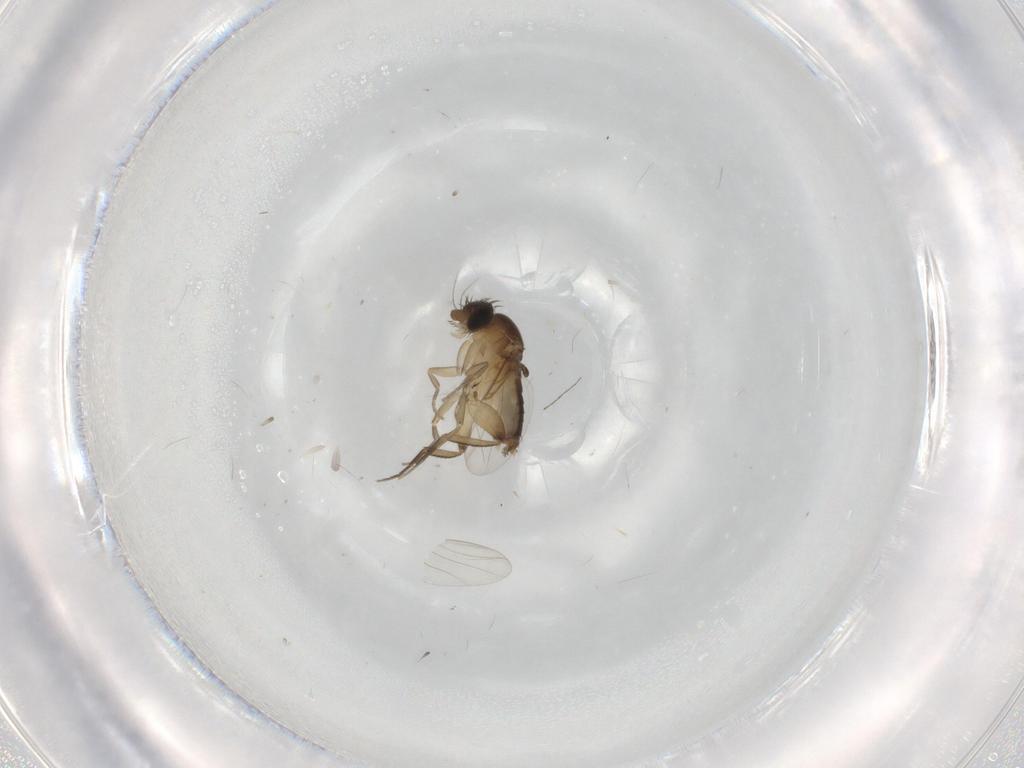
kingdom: Animalia
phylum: Arthropoda
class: Insecta
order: Diptera
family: Phoridae
